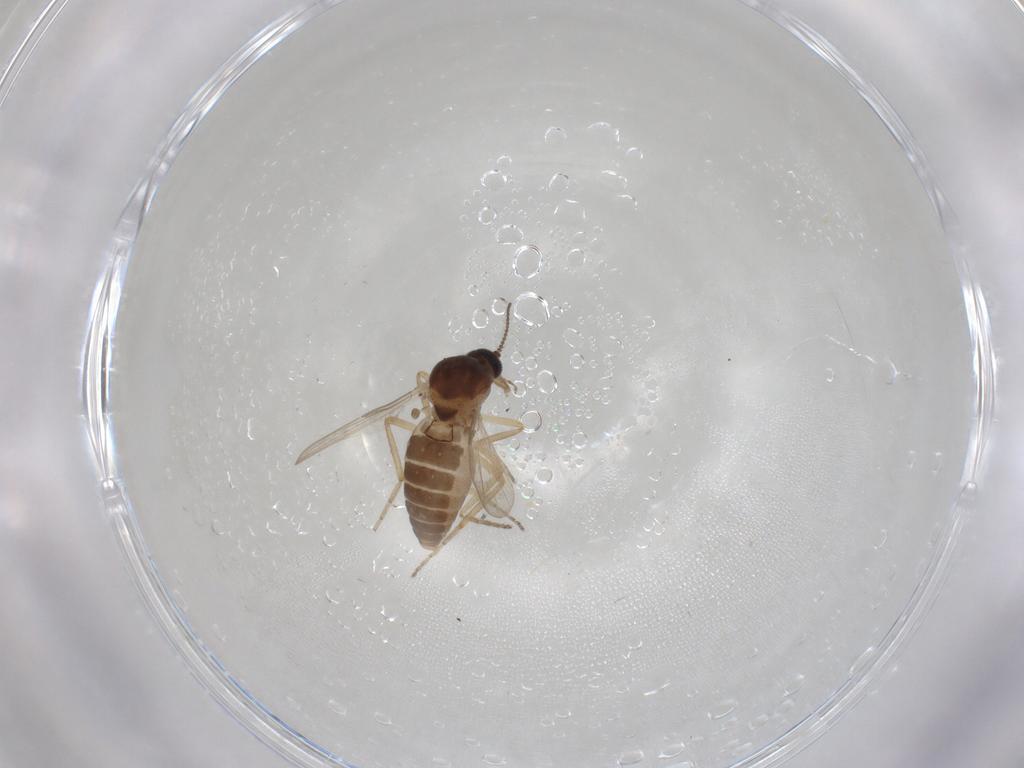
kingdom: Animalia
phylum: Arthropoda
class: Insecta
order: Diptera
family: Ceratopogonidae
